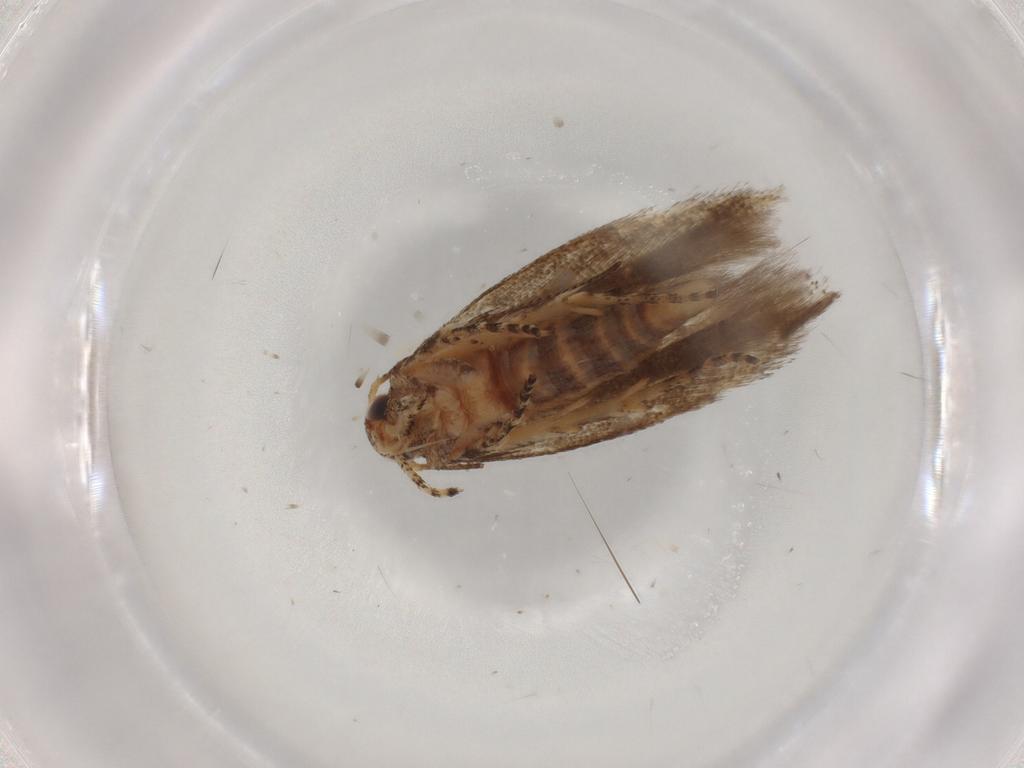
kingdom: Animalia
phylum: Arthropoda
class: Insecta
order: Lepidoptera
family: Gelechiidae
